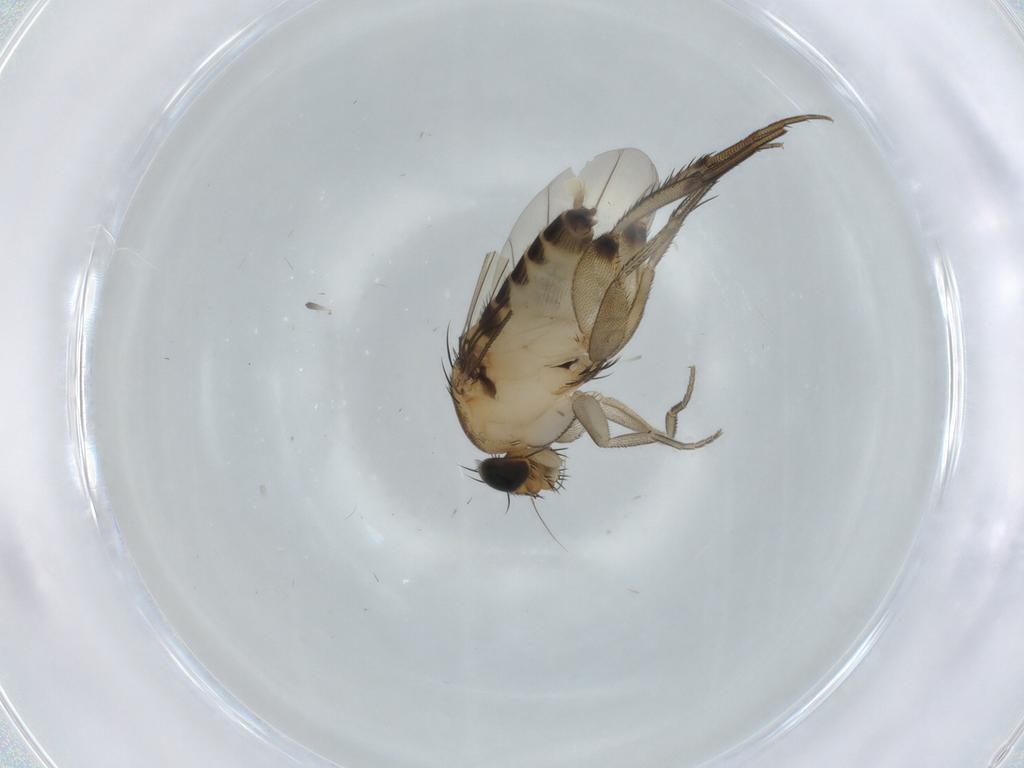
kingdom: Animalia
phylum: Arthropoda
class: Insecta
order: Diptera
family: Phoridae
